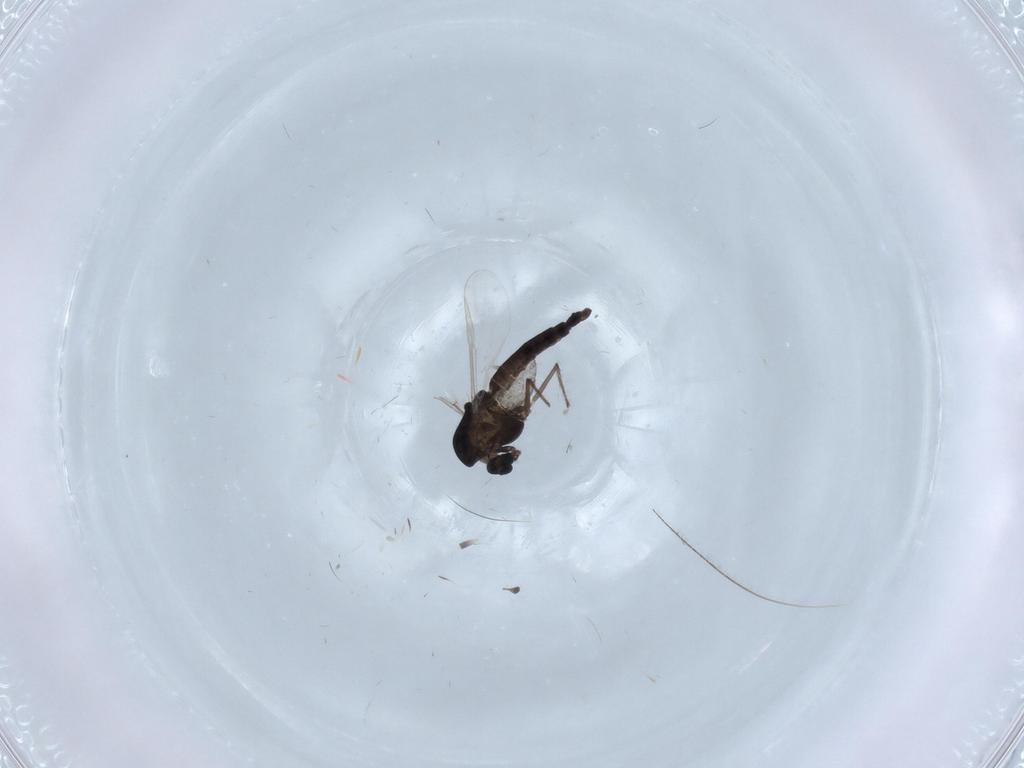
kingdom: Animalia
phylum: Arthropoda
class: Insecta
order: Diptera
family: Chironomidae
